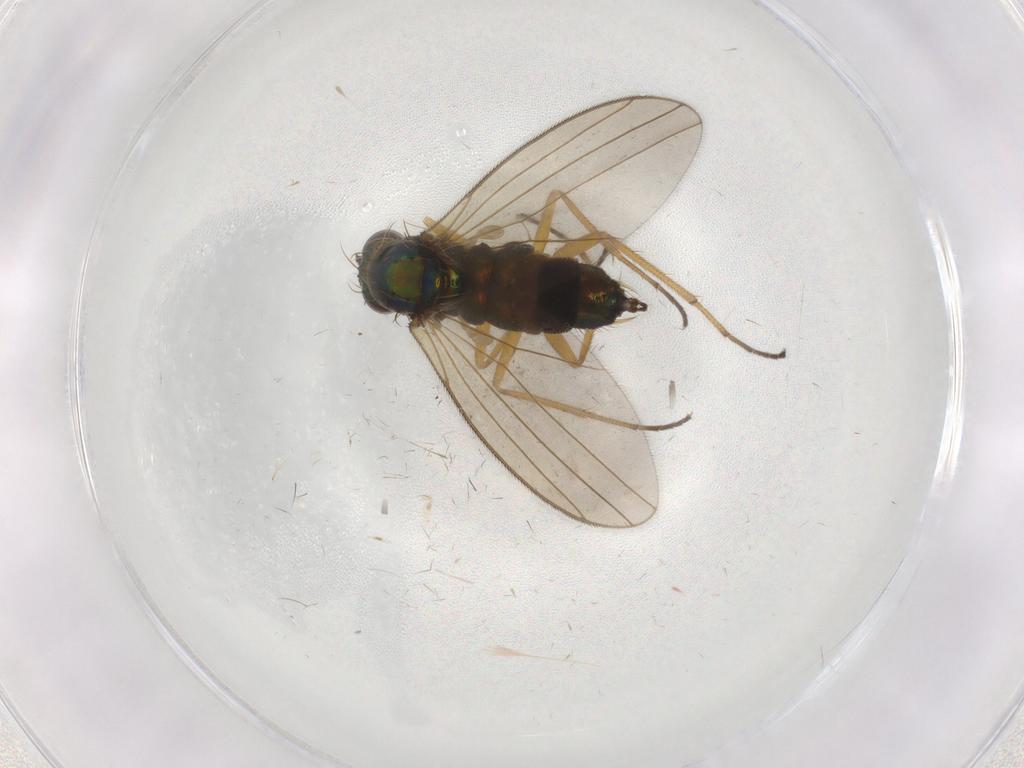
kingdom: Animalia
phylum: Arthropoda
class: Insecta
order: Diptera
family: Dolichopodidae
